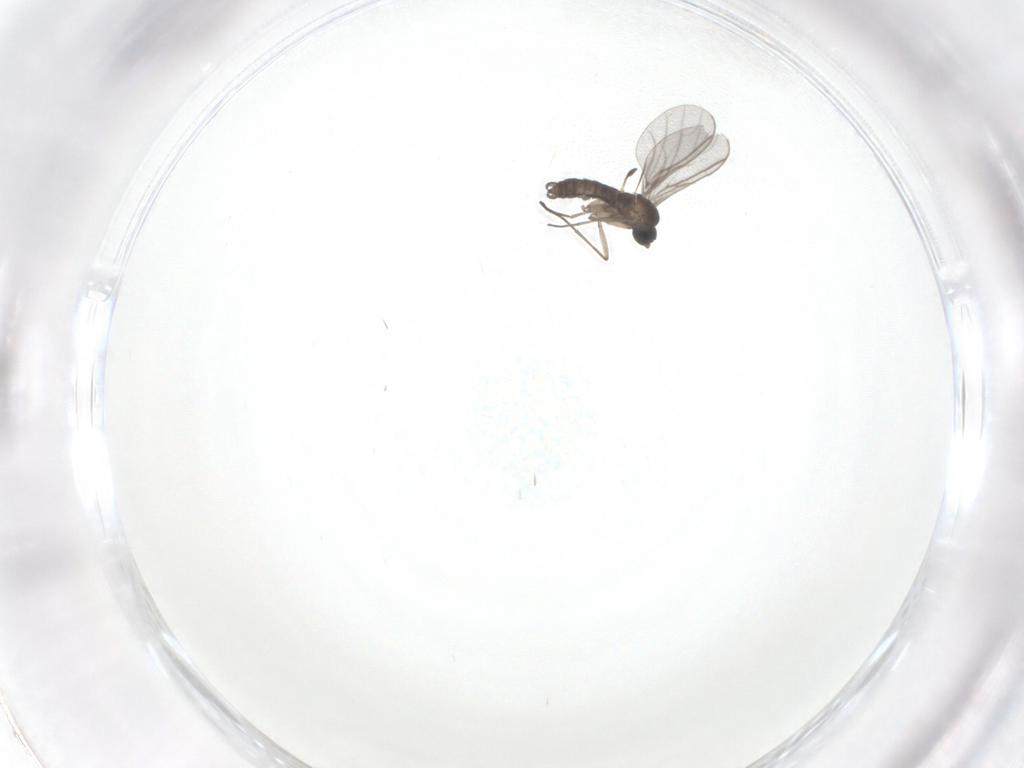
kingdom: Animalia
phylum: Arthropoda
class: Insecta
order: Diptera
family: Sciaridae
